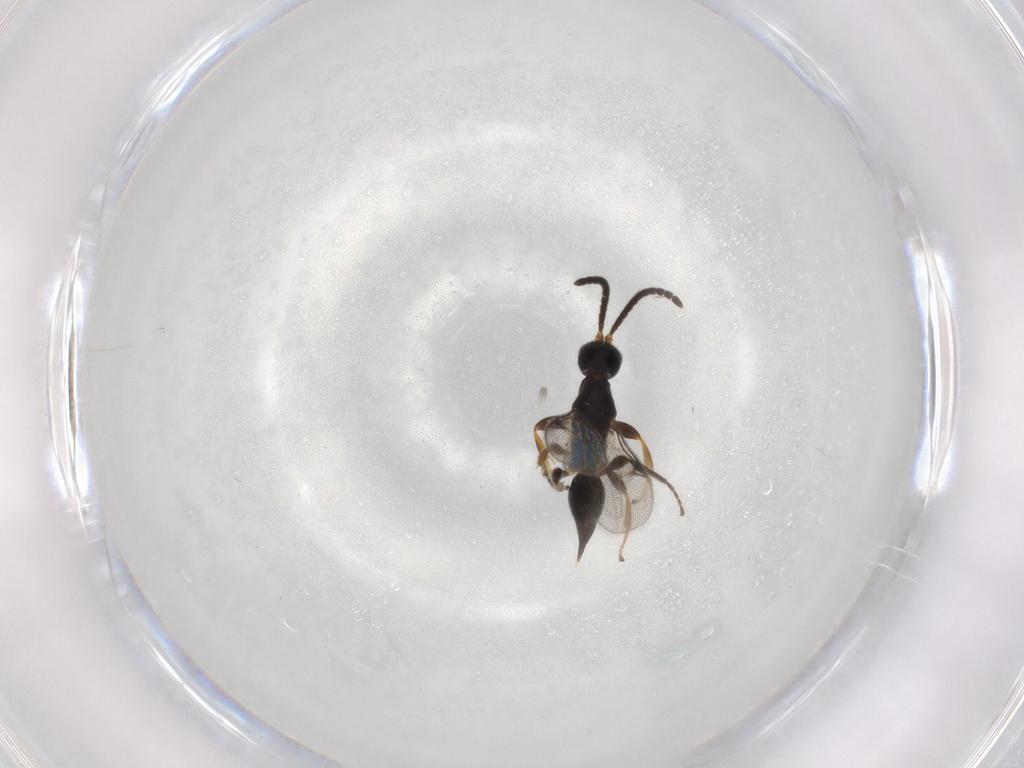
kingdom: Animalia
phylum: Arthropoda
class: Insecta
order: Hymenoptera
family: Proctotrupidae
